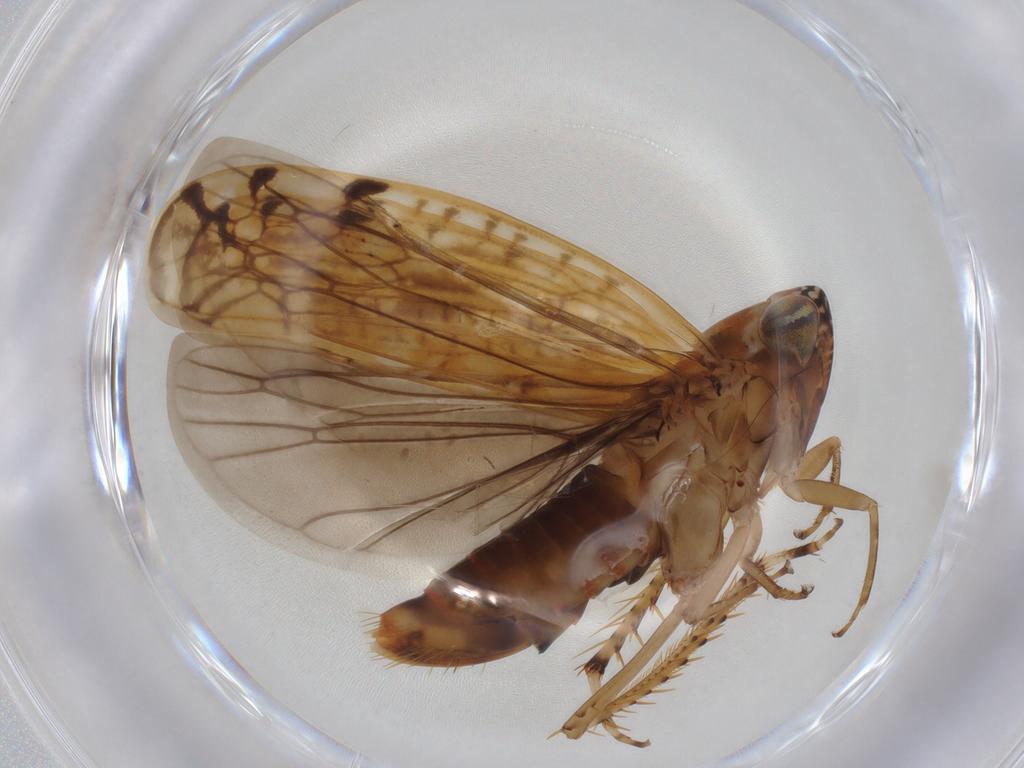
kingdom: Animalia
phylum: Arthropoda
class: Insecta
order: Hemiptera
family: Cicadellidae
